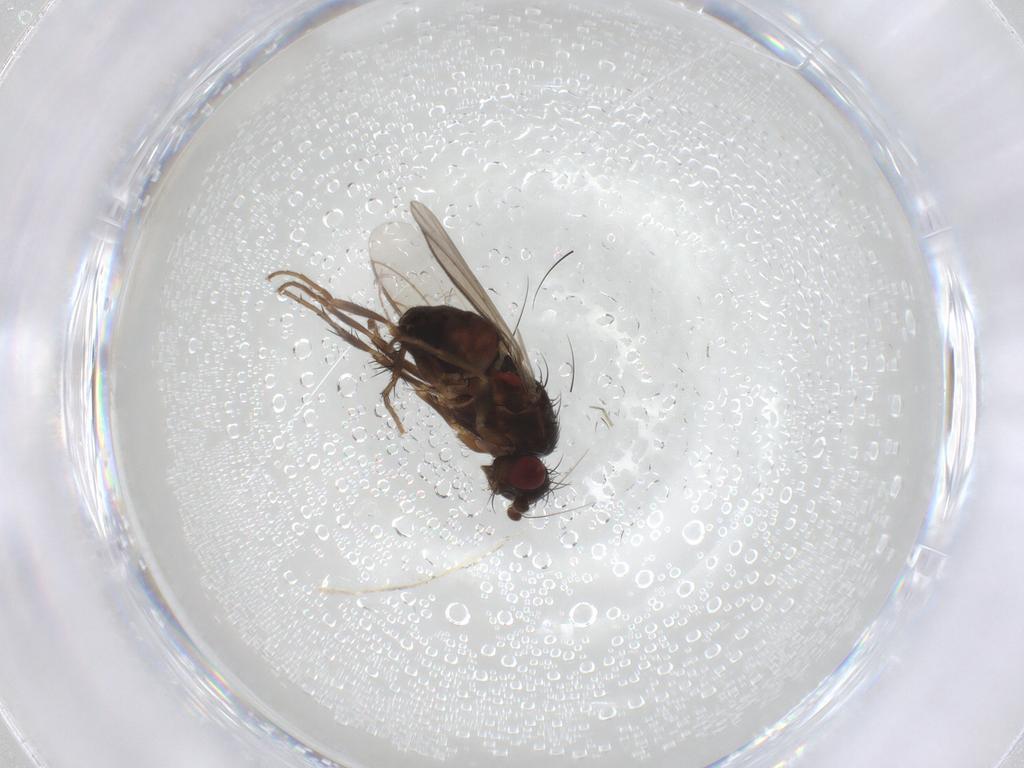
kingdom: Animalia
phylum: Arthropoda
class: Insecta
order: Diptera
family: Sphaeroceridae
